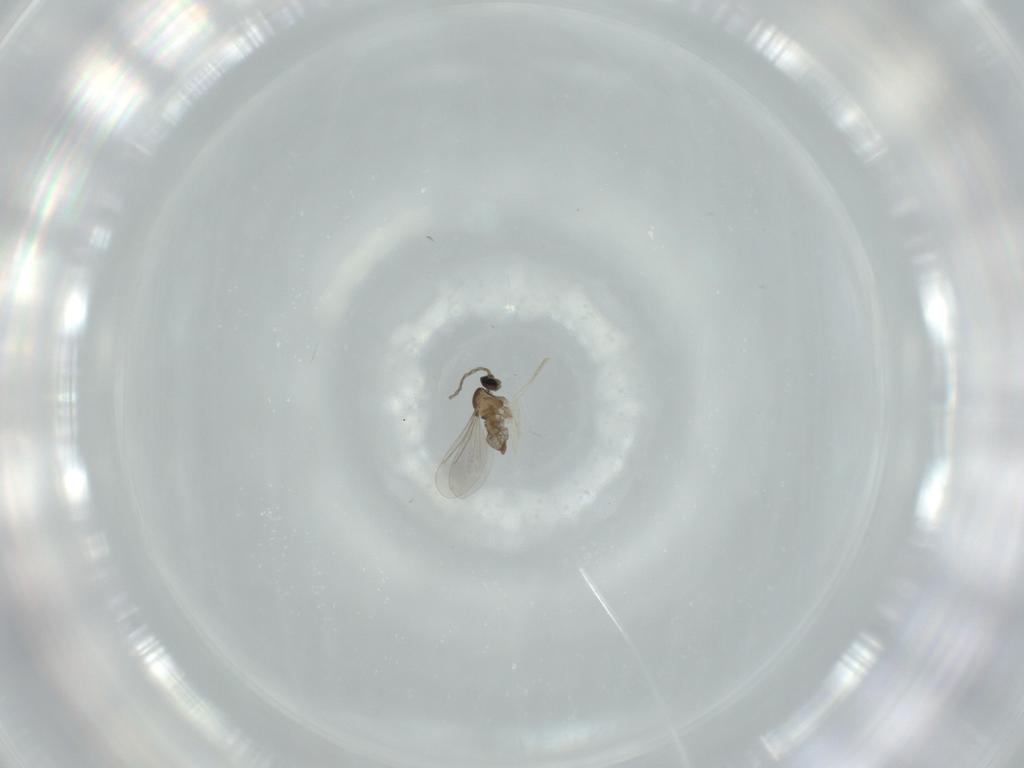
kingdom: Animalia
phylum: Arthropoda
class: Insecta
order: Diptera
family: Cecidomyiidae
